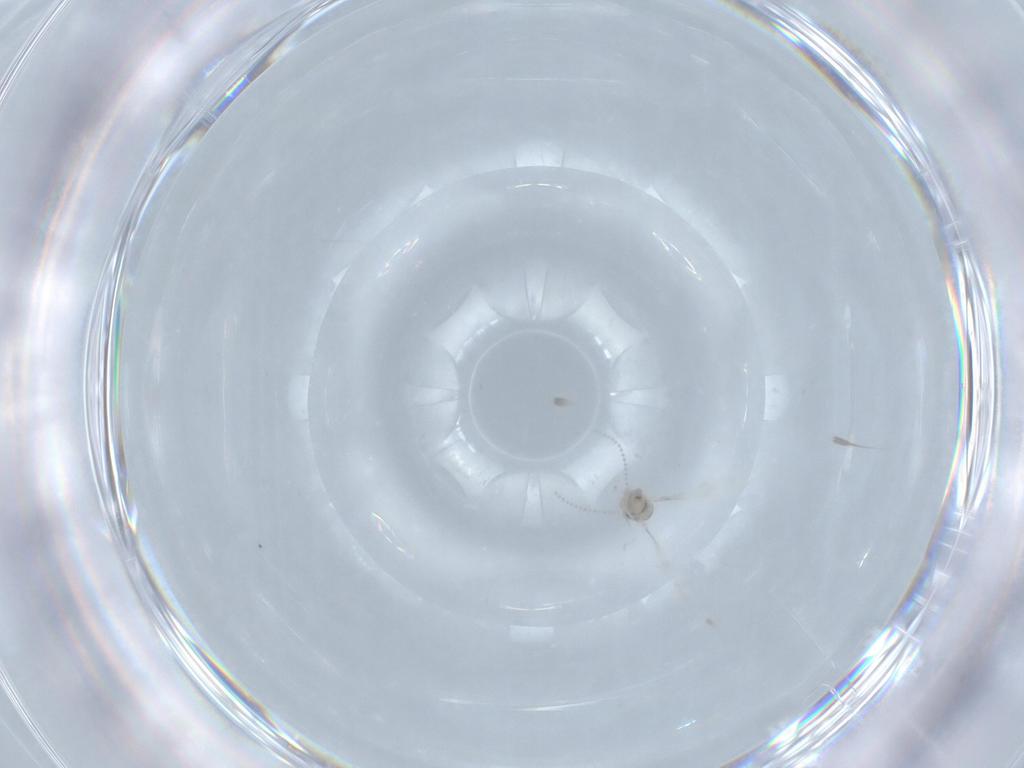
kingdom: Animalia
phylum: Arthropoda
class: Insecta
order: Diptera
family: Cecidomyiidae
